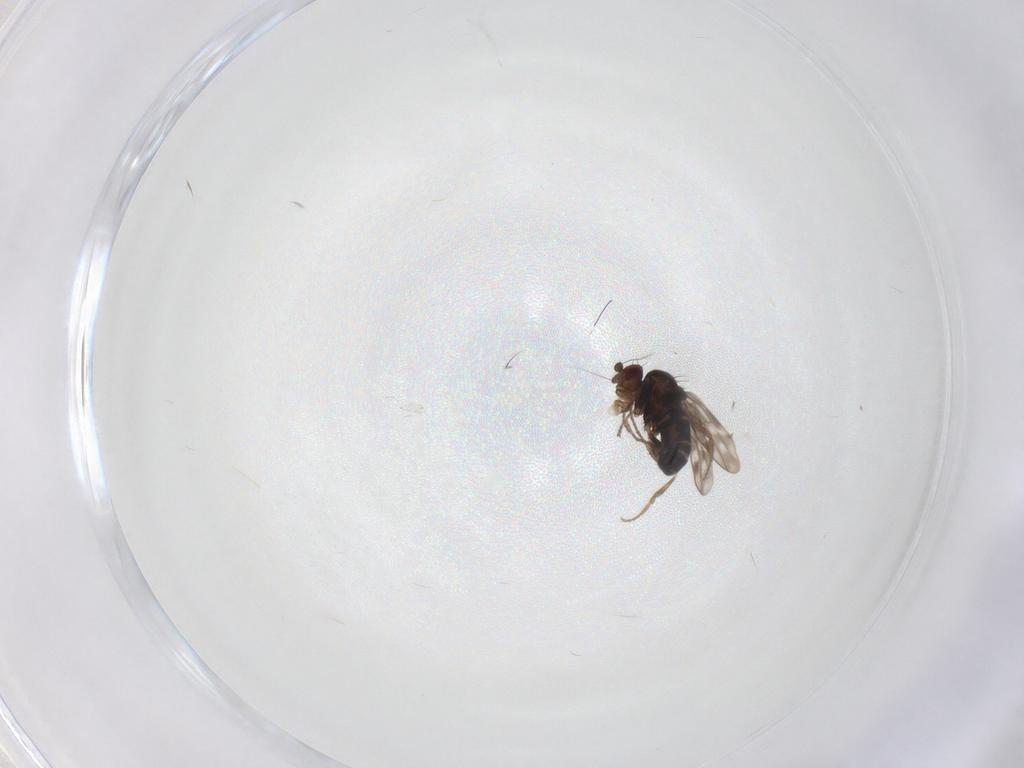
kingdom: Animalia
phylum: Arthropoda
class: Insecta
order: Diptera
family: Sphaeroceridae
